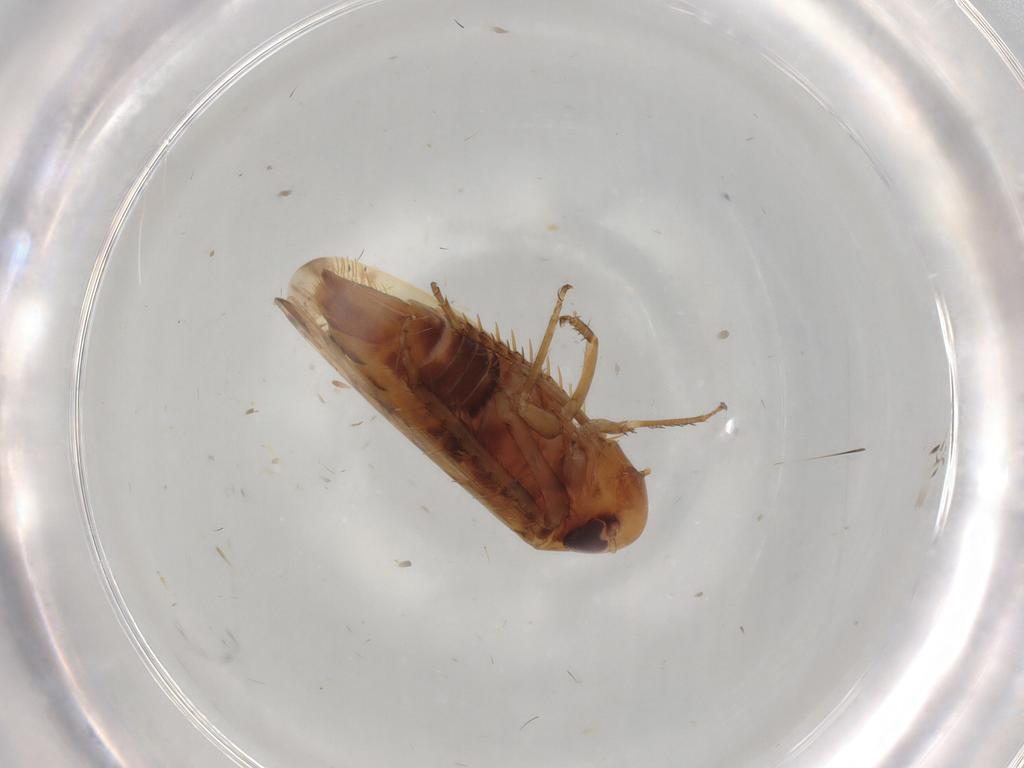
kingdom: Animalia
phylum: Arthropoda
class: Insecta
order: Hemiptera
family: Cicadellidae
